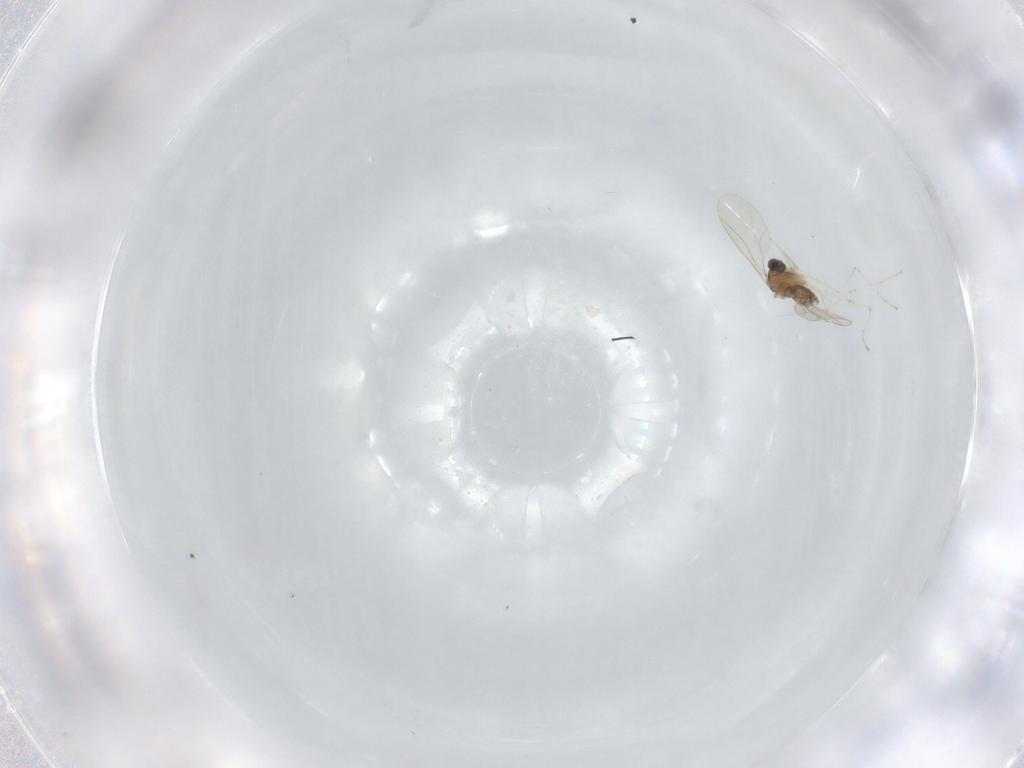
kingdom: Animalia
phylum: Arthropoda
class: Insecta
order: Diptera
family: Cecidomyiidae
